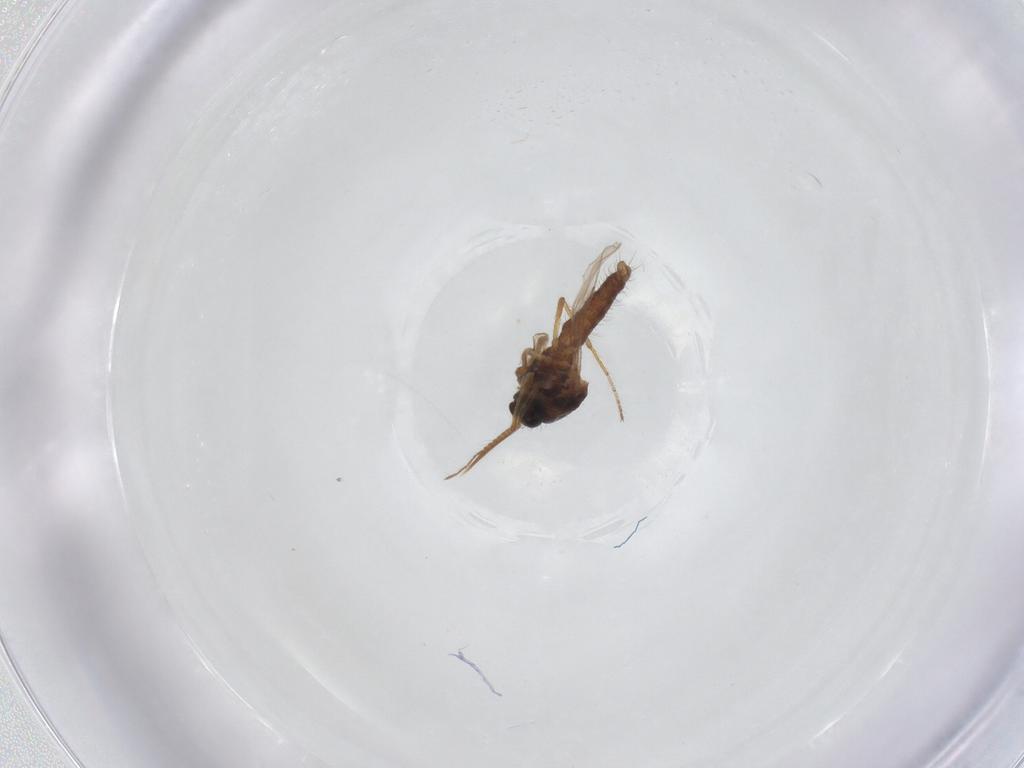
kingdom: Animalia
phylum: Arthropoda
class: Insecta
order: Diptera
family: Ceratopogonidae
